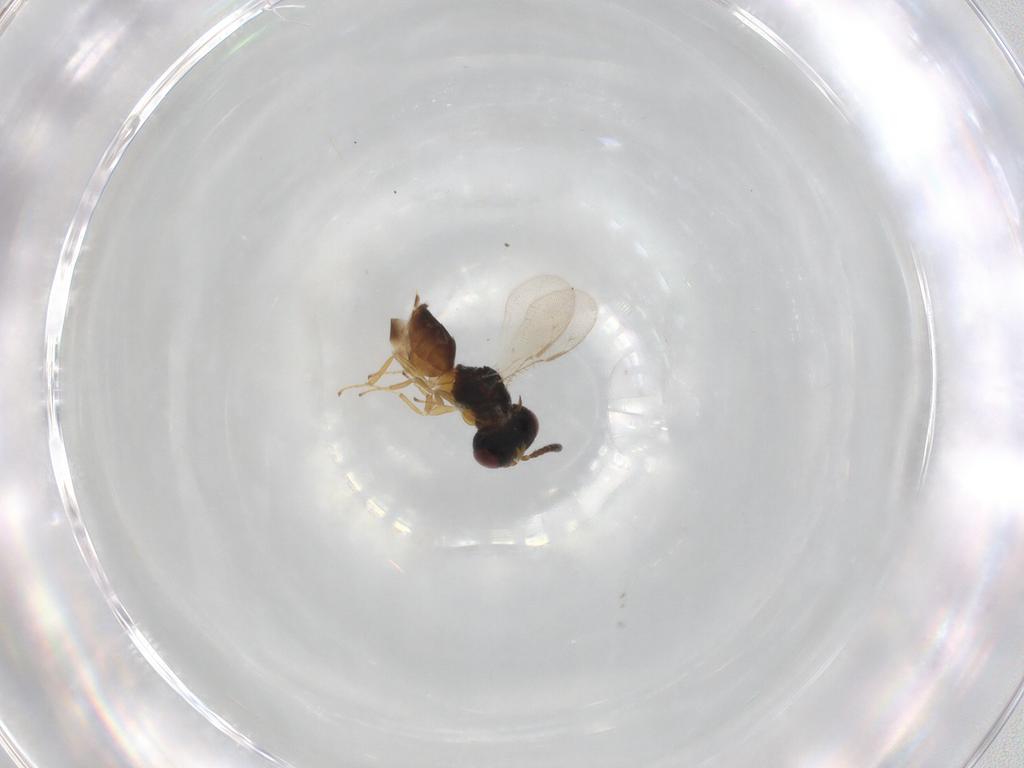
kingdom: Animalia
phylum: Arthropoda
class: Insecta
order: Hymenoptera
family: Pteromalidae
